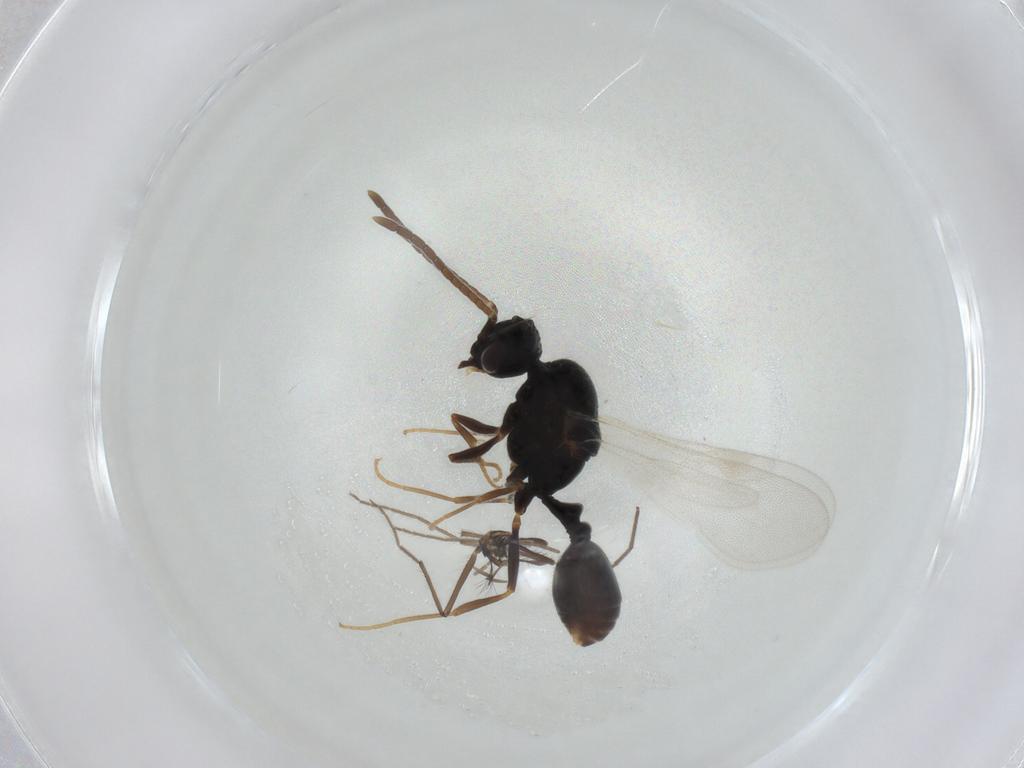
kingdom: Animalia
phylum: Arthropoda
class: Insecta
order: Hymenoptera
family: Formicidae
